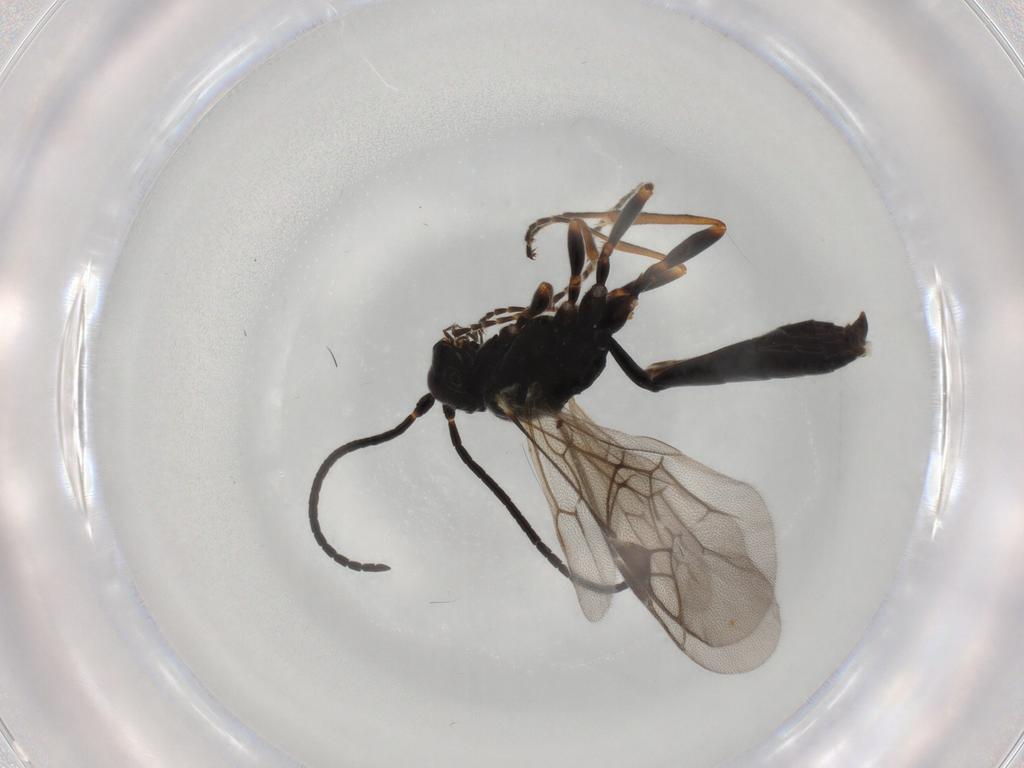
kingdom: Animalia
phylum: Arthropoda
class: Insecta
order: Hymenoptera
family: Ichneumonidae
